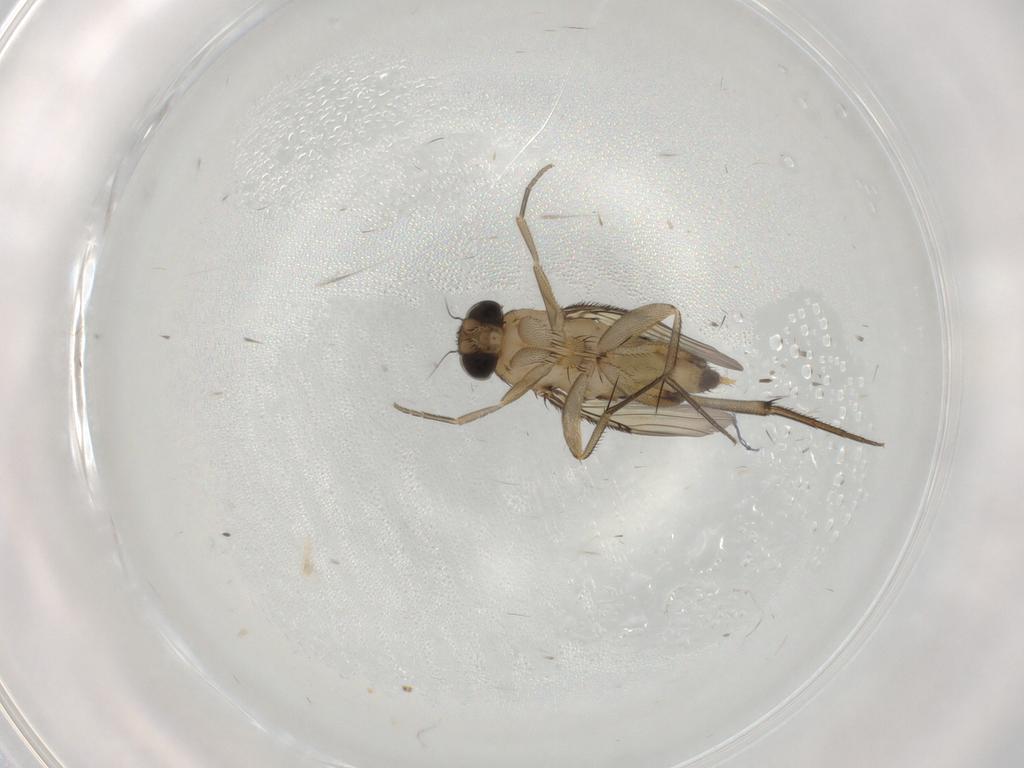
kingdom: Animalia
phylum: Arthropoda
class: Insecta
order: Diptera
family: Phoridae
